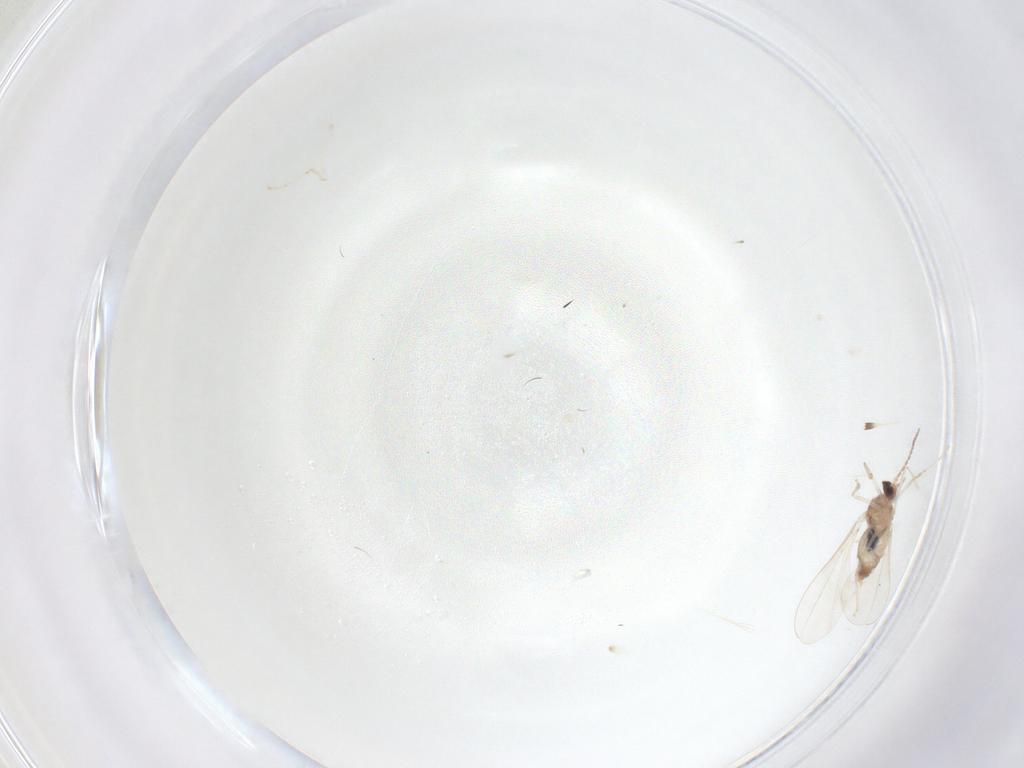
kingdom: Animalia
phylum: Arthropoda
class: Insecta
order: Diptera
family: Cecidomyiidae
